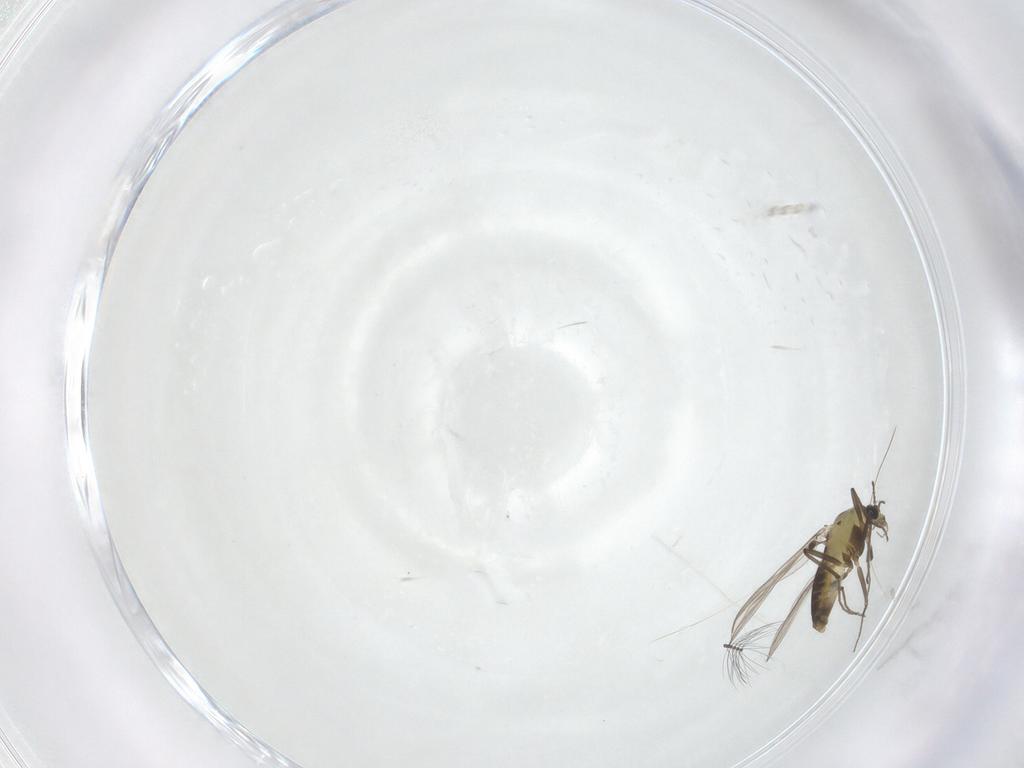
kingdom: Animalia
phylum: Arthropoda
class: Insecta
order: Diptera
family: Chironomidae
